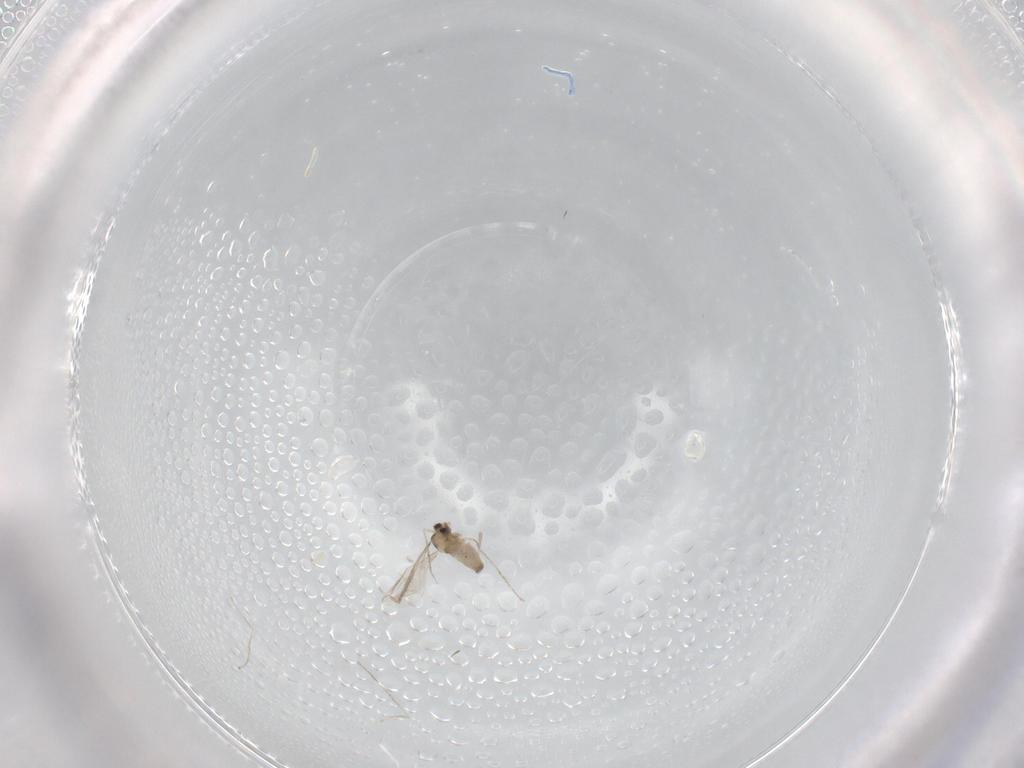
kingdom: Animalia
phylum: Arthropoda
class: Insecta
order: Diptera
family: Cecidomyiidae
